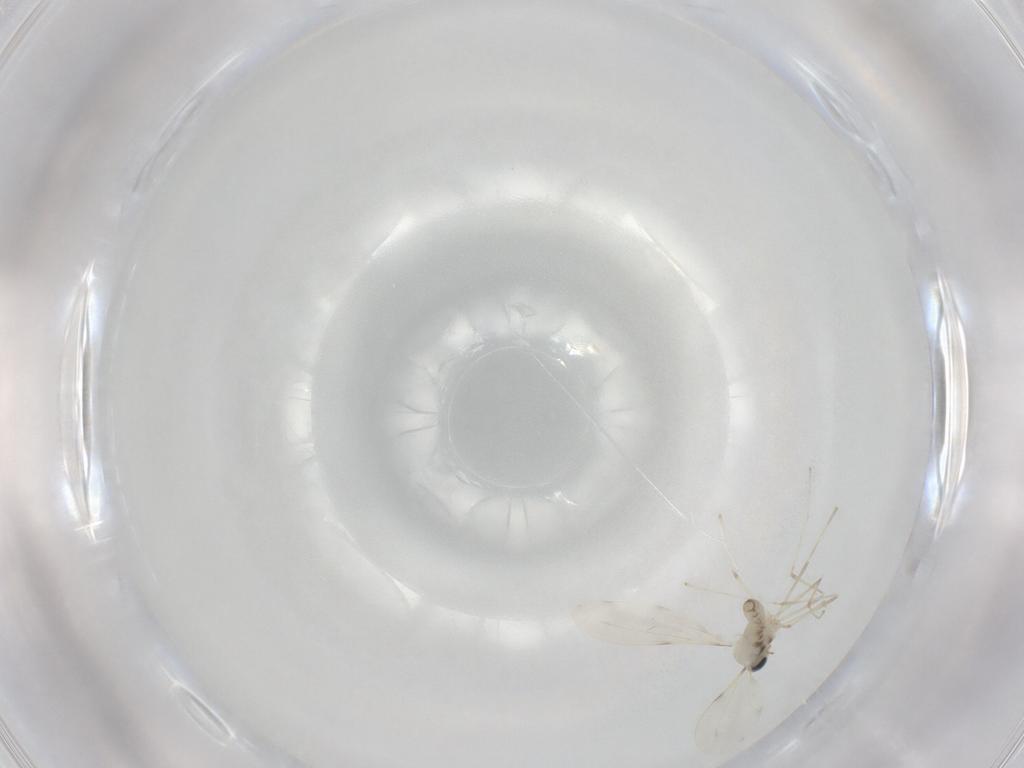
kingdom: Animalia
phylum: Arthropoda
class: Insecta
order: Diptera
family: Cecidomyiidae
